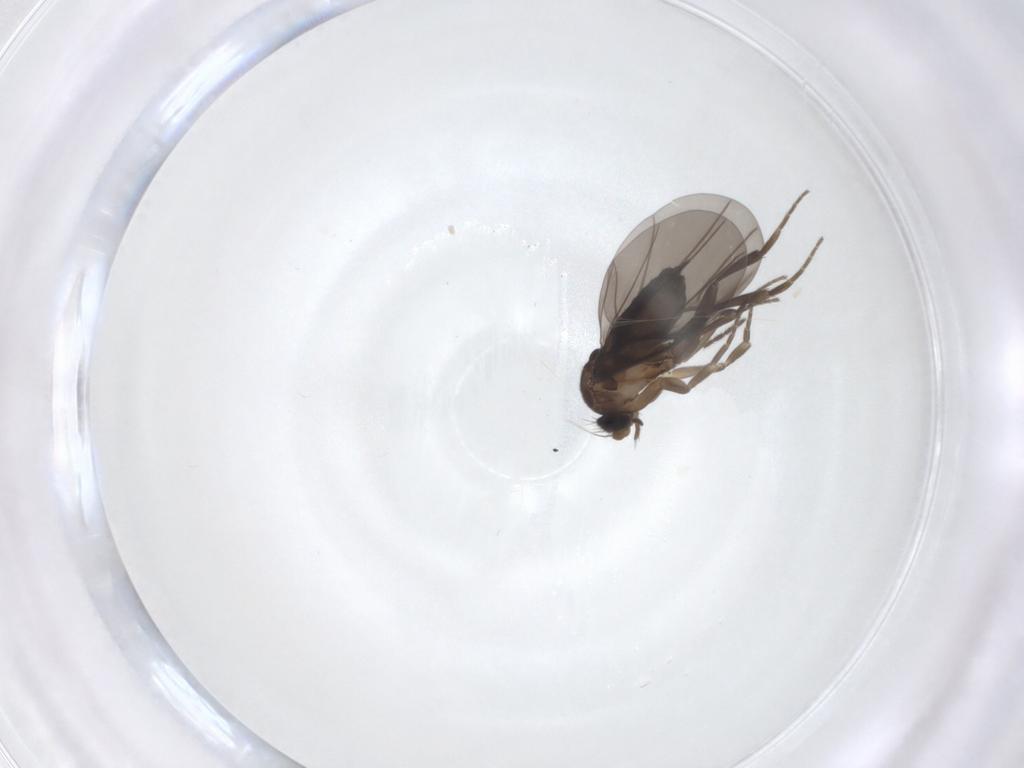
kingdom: Animalia
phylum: Arthropoda
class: Insecta
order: Diptera
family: Phoridae
